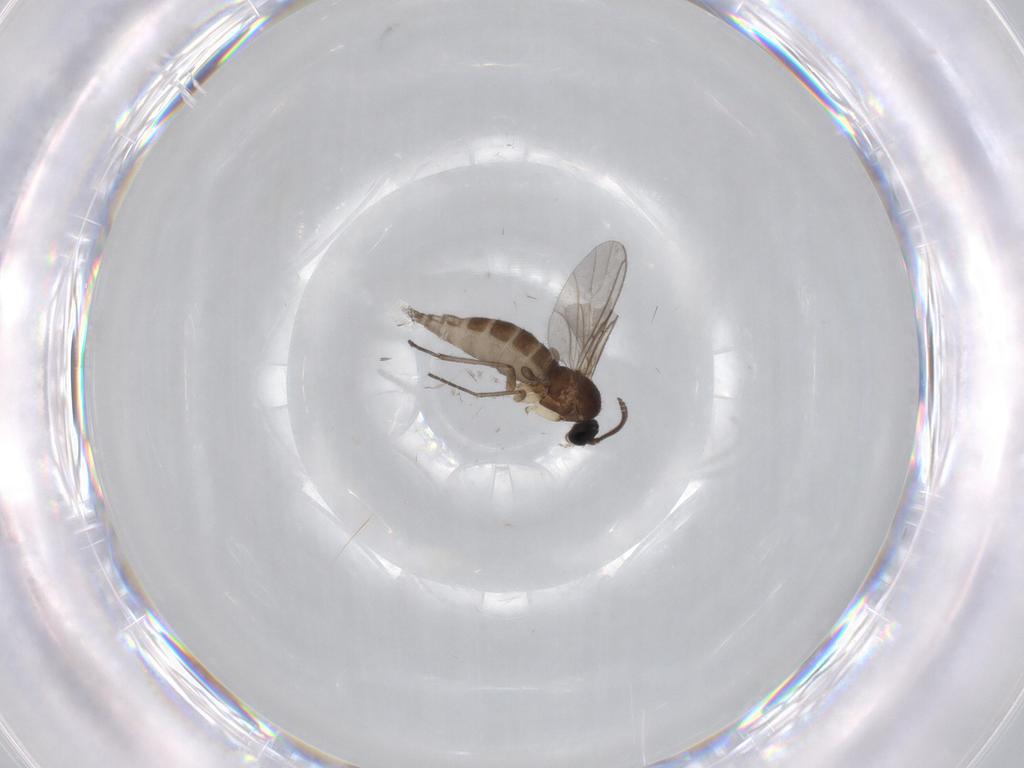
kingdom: Animalia
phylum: Arthropoda
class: Insecta
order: Diptera
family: Sciaridae
